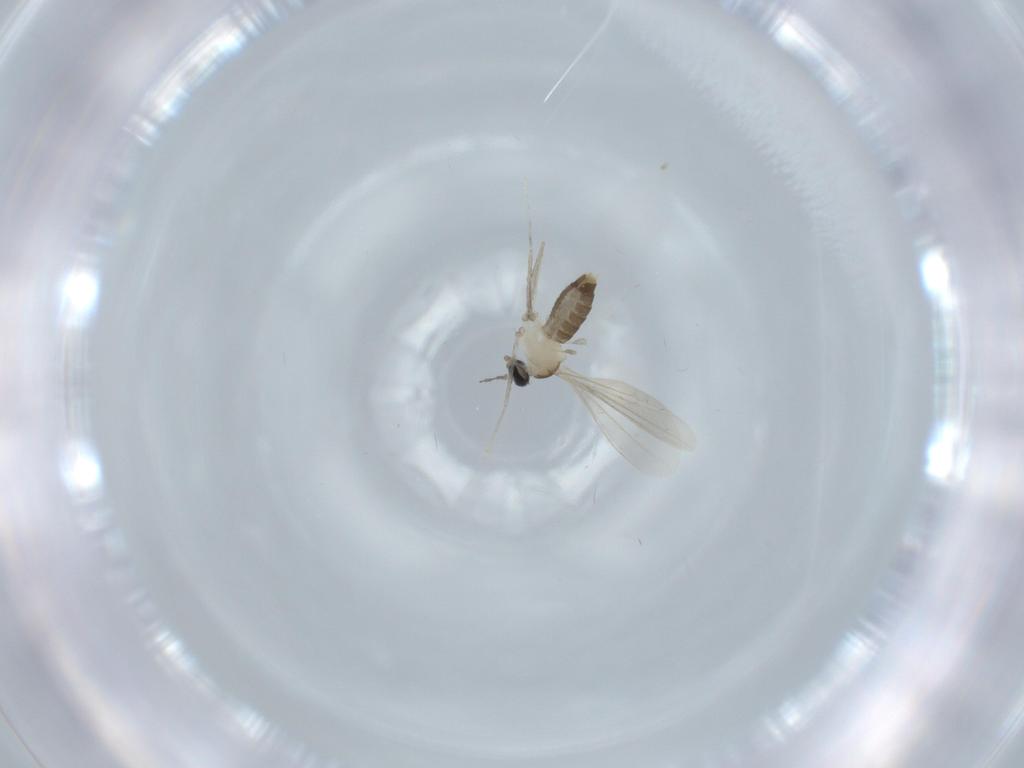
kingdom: Animalia
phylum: Arthropoda
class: Insecta
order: Diptera
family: Cecidomyiidae
